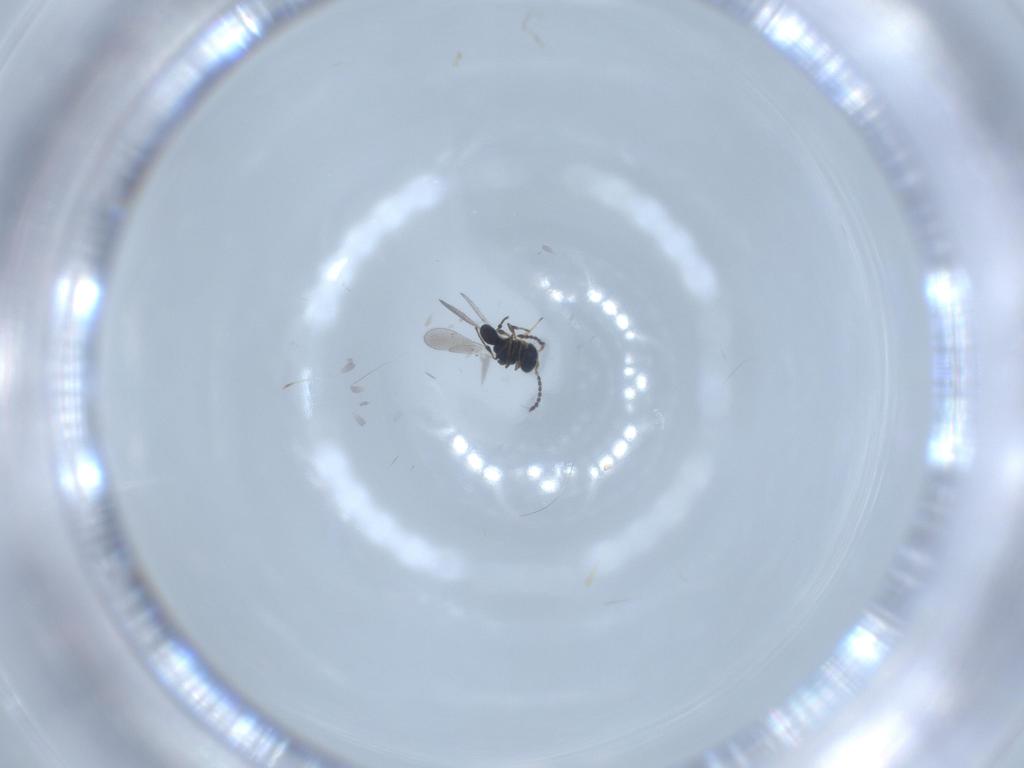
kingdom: Animalia
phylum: Arthropoda
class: Insecta
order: Hymenoptera
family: Platygastridae
